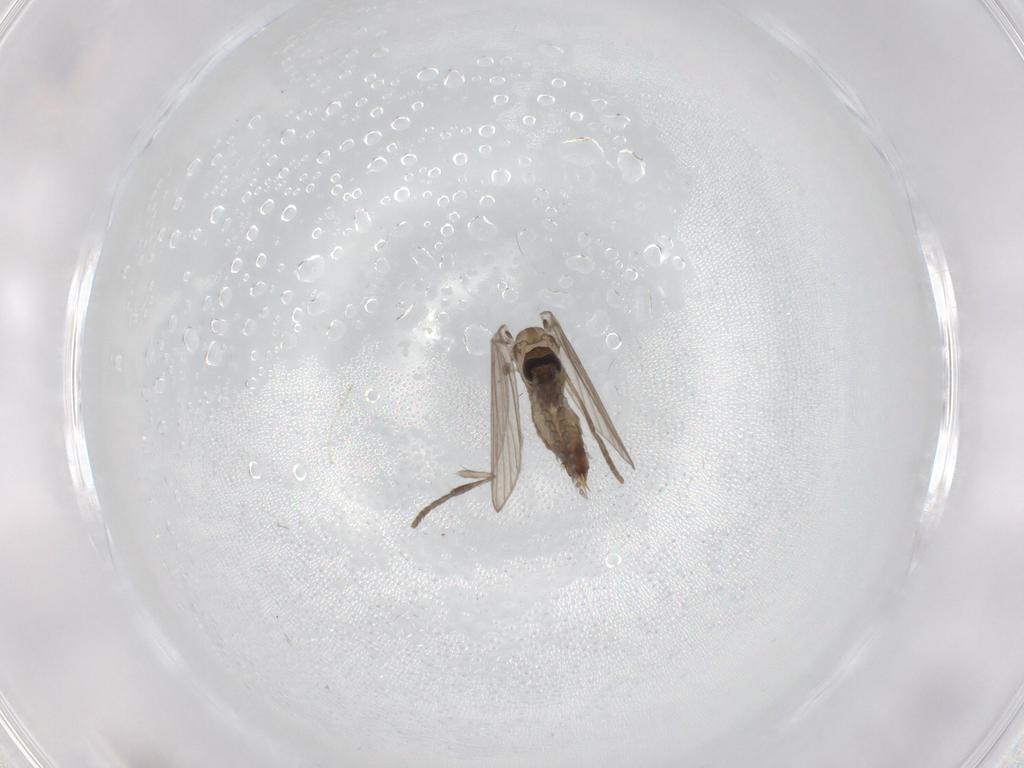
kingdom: Animalia
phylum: Arthropoda
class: Insecta
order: Diptera
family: Psychodidae
